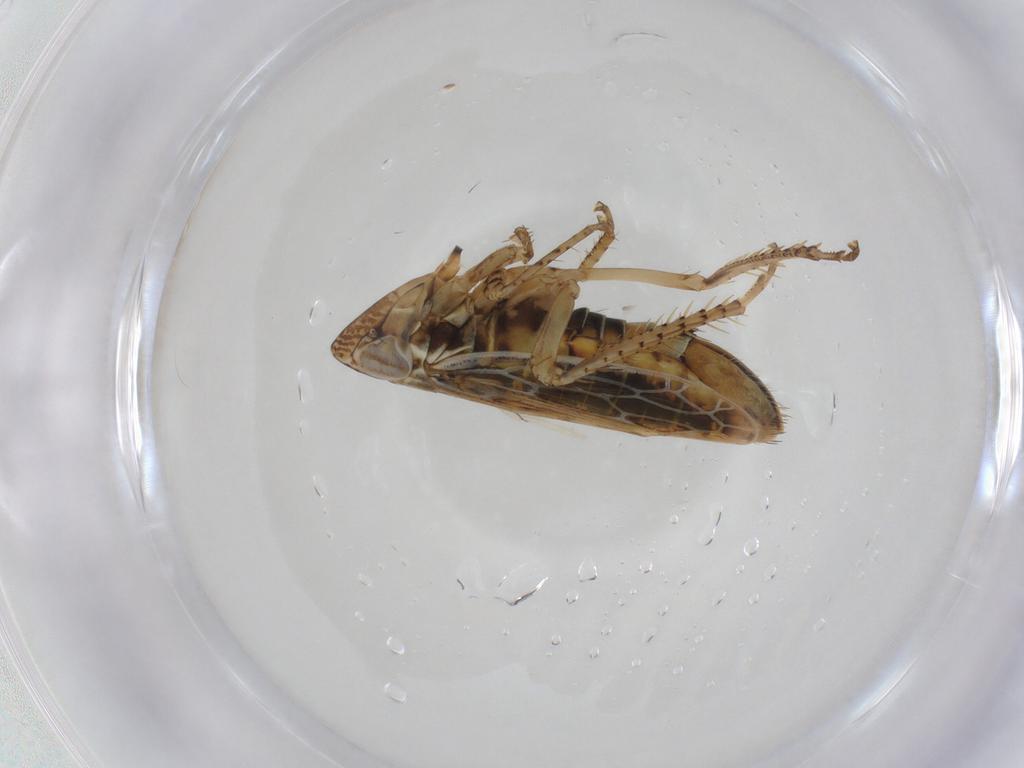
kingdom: Animalia
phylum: Arthropoda
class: Insecta
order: Hemiptera
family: Cicadellidae
